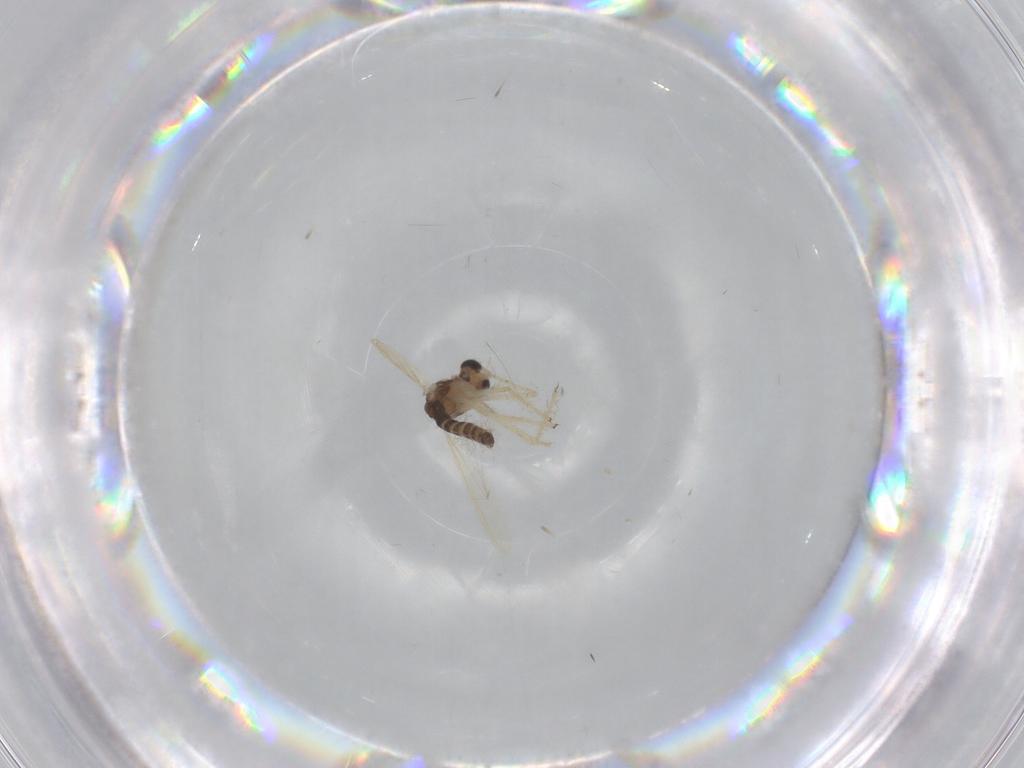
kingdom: Animalia
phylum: Arthropoda
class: Insecta
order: Diptera
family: Chironomidae
